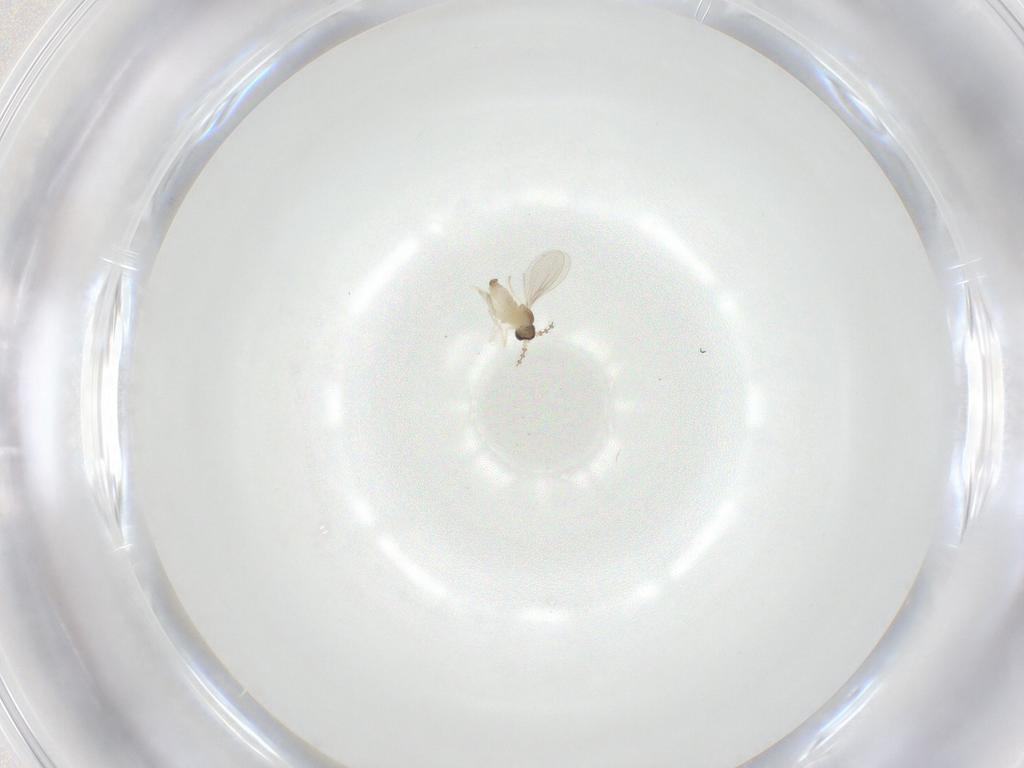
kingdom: Animalia
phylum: Arthropoda
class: Insecta
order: Diptera
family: Cecidomyiidae
